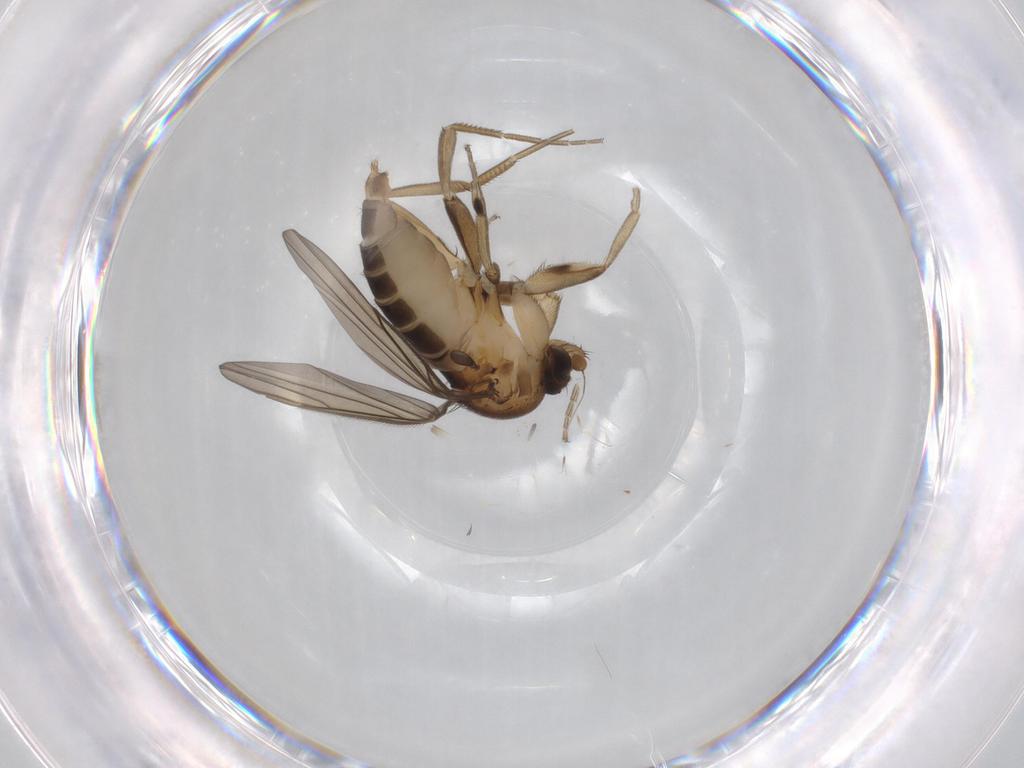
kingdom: Animalia
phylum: Arthropoda
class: Insecta
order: Diptera
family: Phoridae
